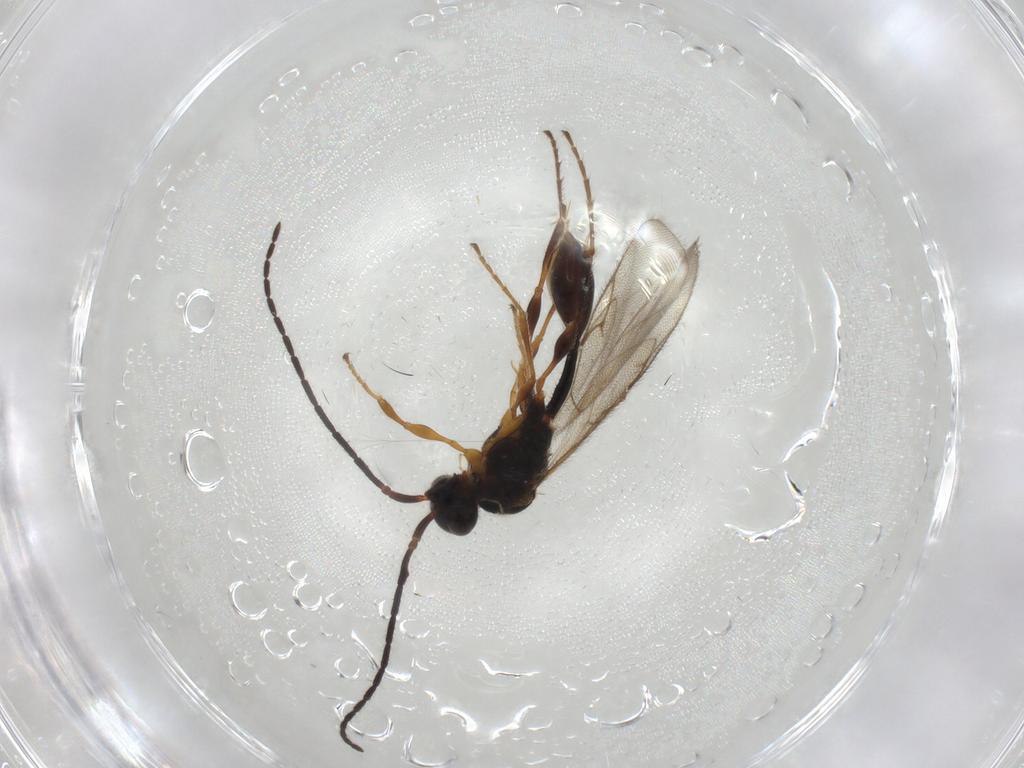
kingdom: Animalia
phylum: Arthropoda
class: Insecta
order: Hymenoptera
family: Diapriidae
